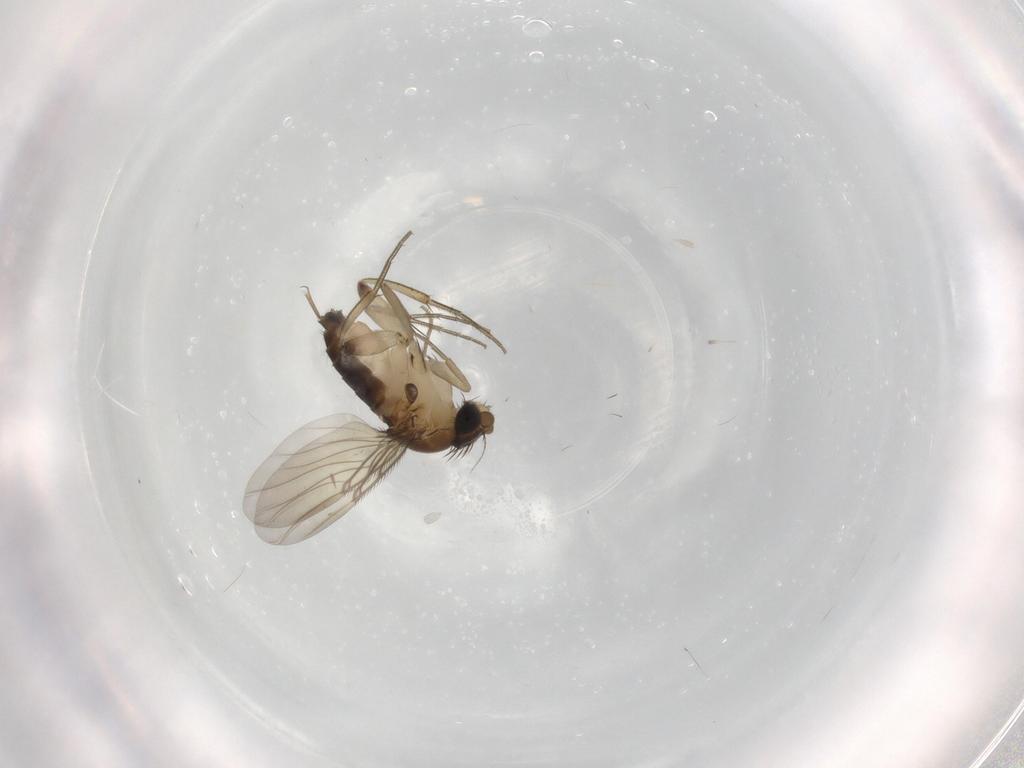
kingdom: Animalia
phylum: Arthropoda
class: Insecta
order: Diptera
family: Phoridae
